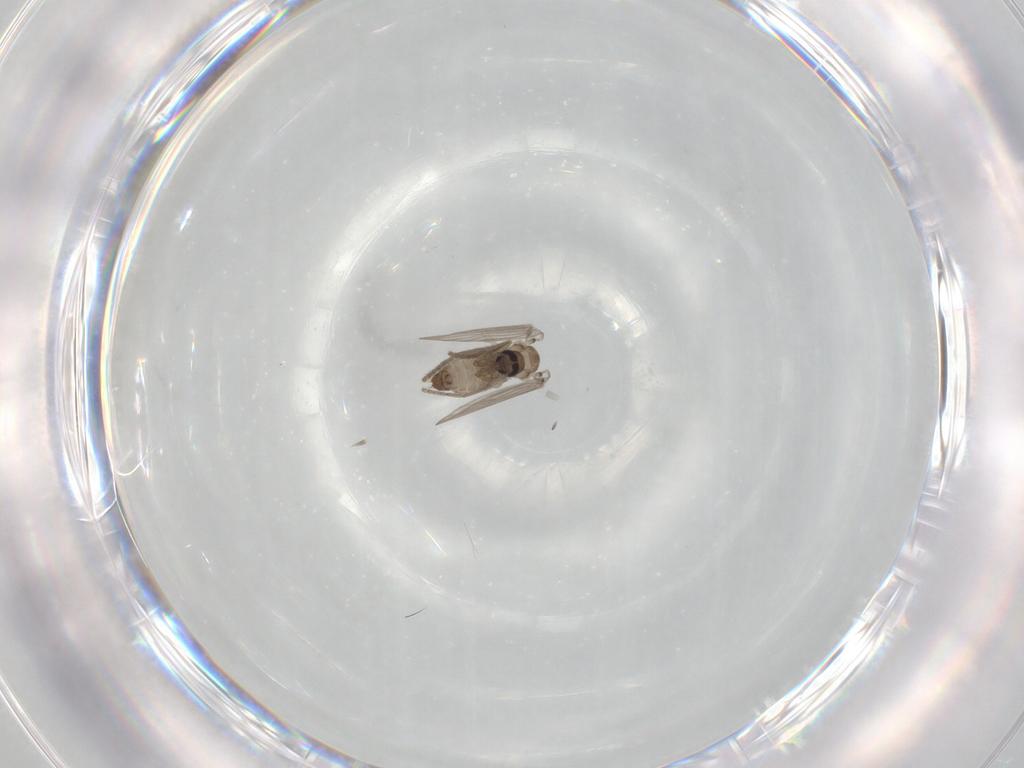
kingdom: Animalia
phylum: Arthropoda
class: Insecta
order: Diptera
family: Psychodidae
